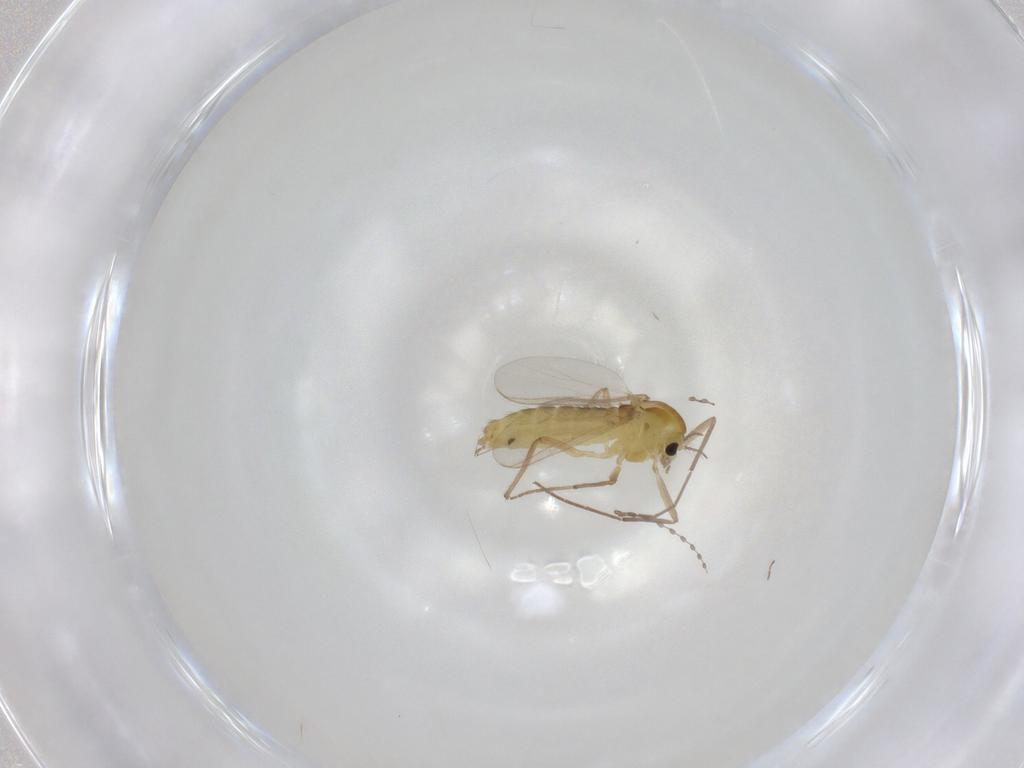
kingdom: Animalia
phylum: Arthropoda
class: Insecta
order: Diptera
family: Chironomidae
